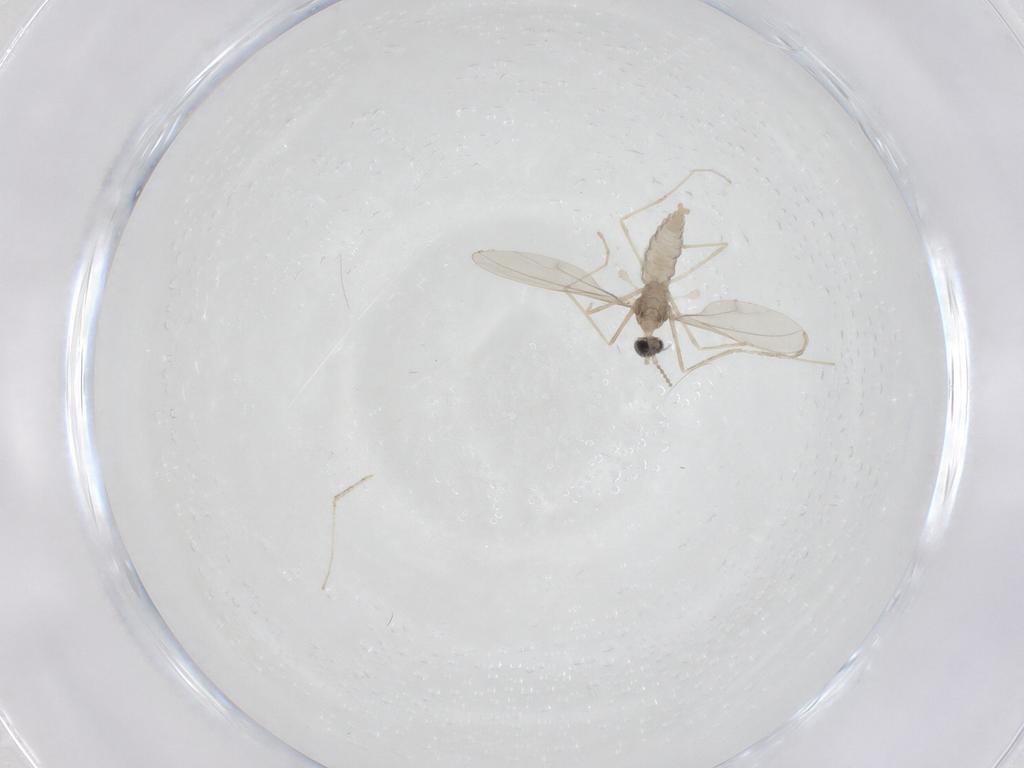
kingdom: Animalia
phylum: Arthropoda
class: Insecta
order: Diptera
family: Cecidomyiidae
